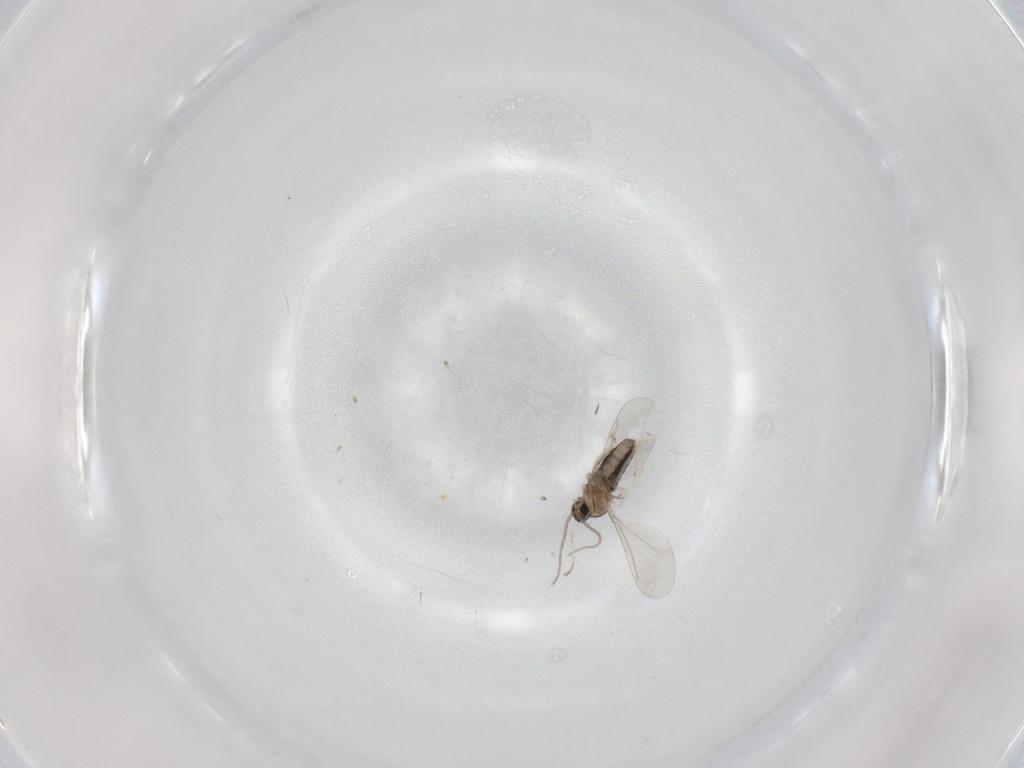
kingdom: Animalia
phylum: Arthropoda
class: Insecta
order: Diptera
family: Cecidomyiidae
